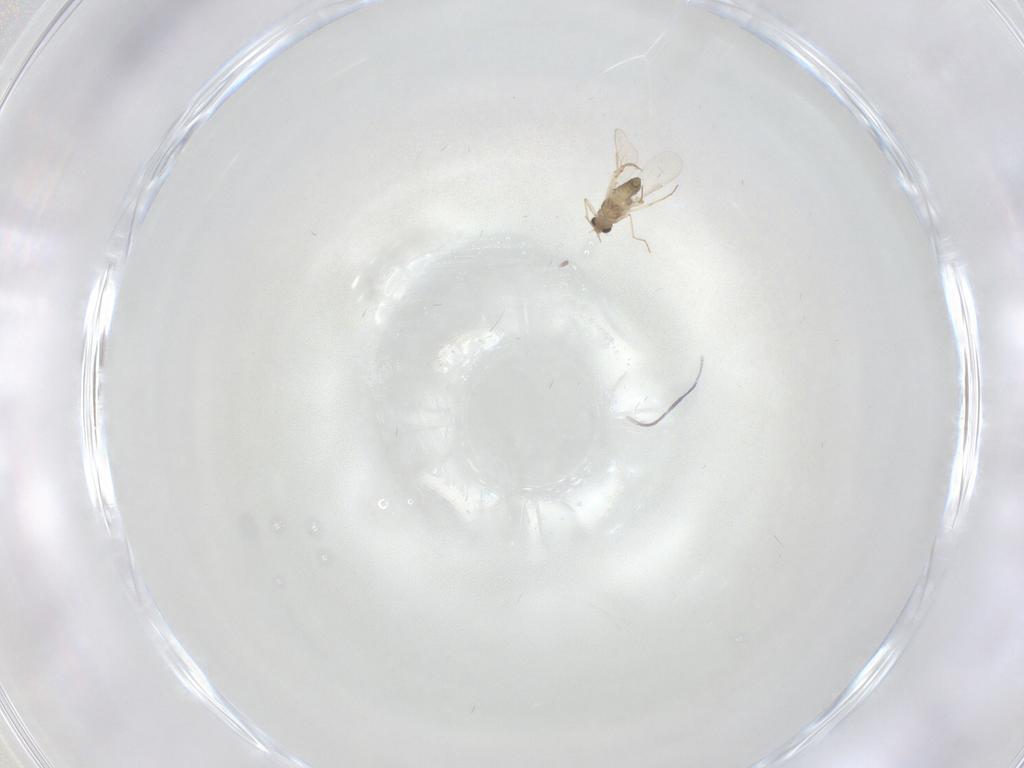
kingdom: Animalia
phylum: Arthropoda
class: Insecta
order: Diptera
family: Chironomidae
